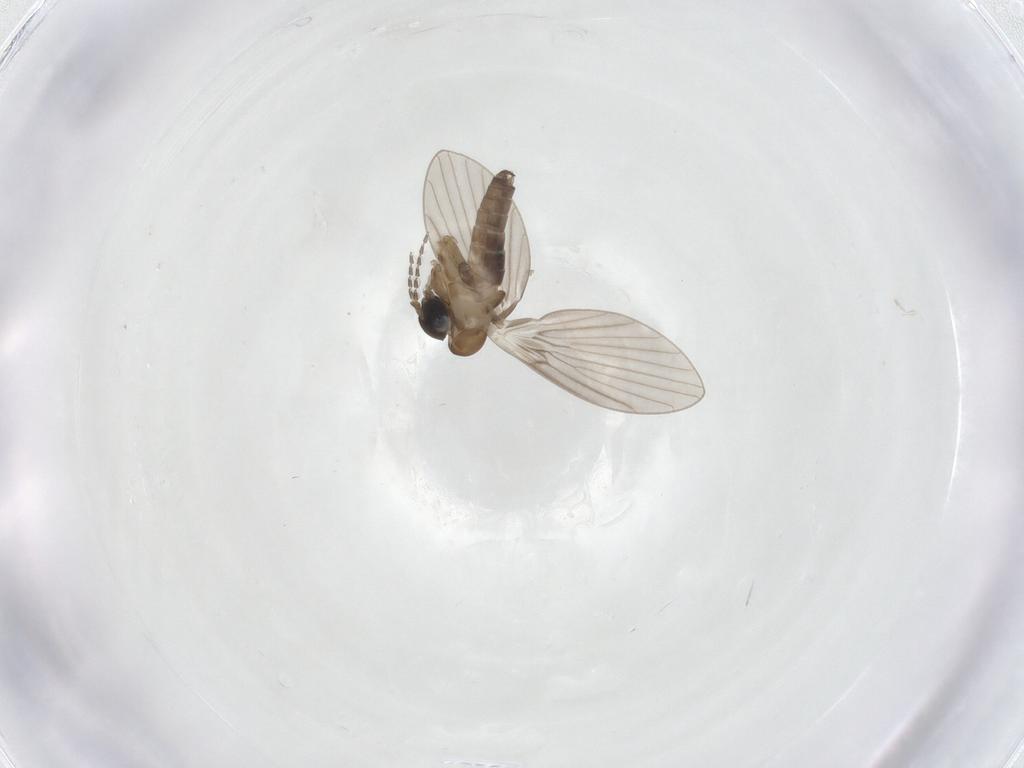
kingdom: Animalia
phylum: Arthropoda
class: Insecta
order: Diptera
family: Psychodidae
